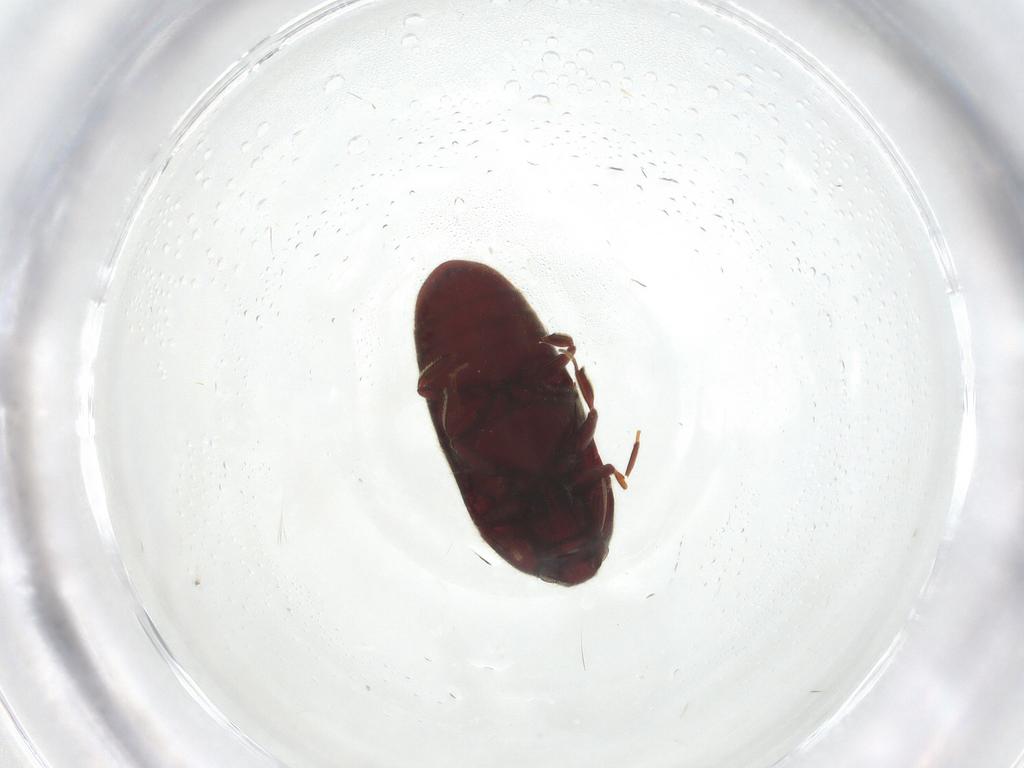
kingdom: Animalia
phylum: Arthropoda
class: Insecta
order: Coleoptera
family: Throscidae
